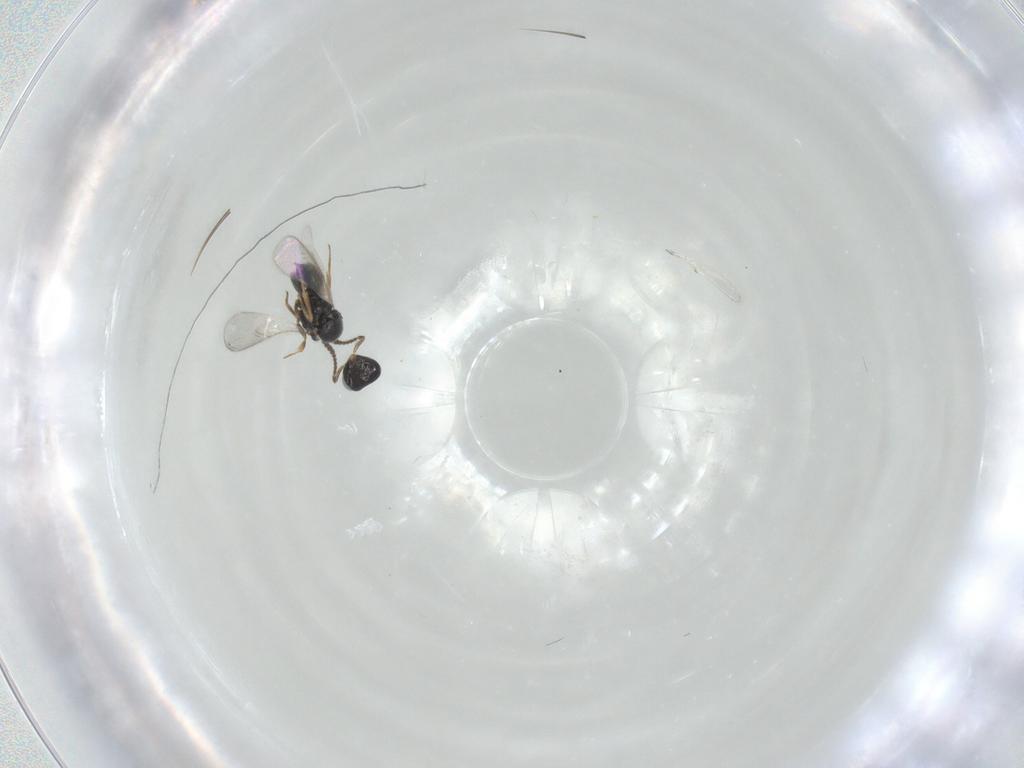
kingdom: Animalia
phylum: Arthropoda
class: Insecta
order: Hymenoptera
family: Scelionidae
